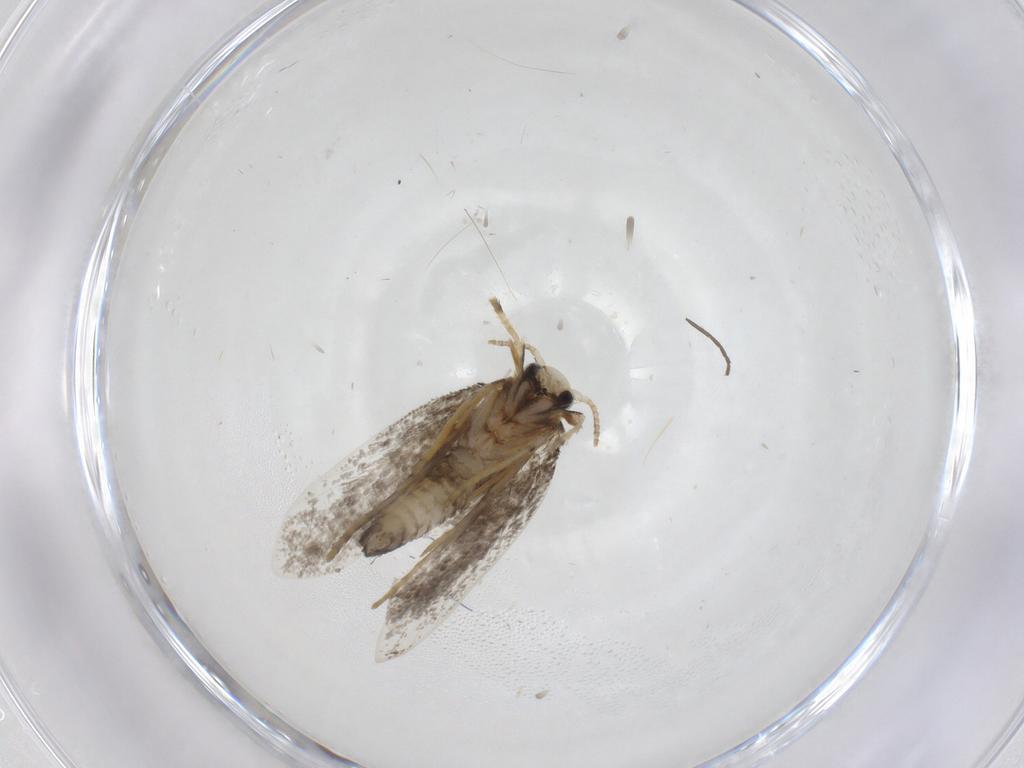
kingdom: Animalia
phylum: Arthropoda
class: Insecta
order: Lepidoptera
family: Psychidae
